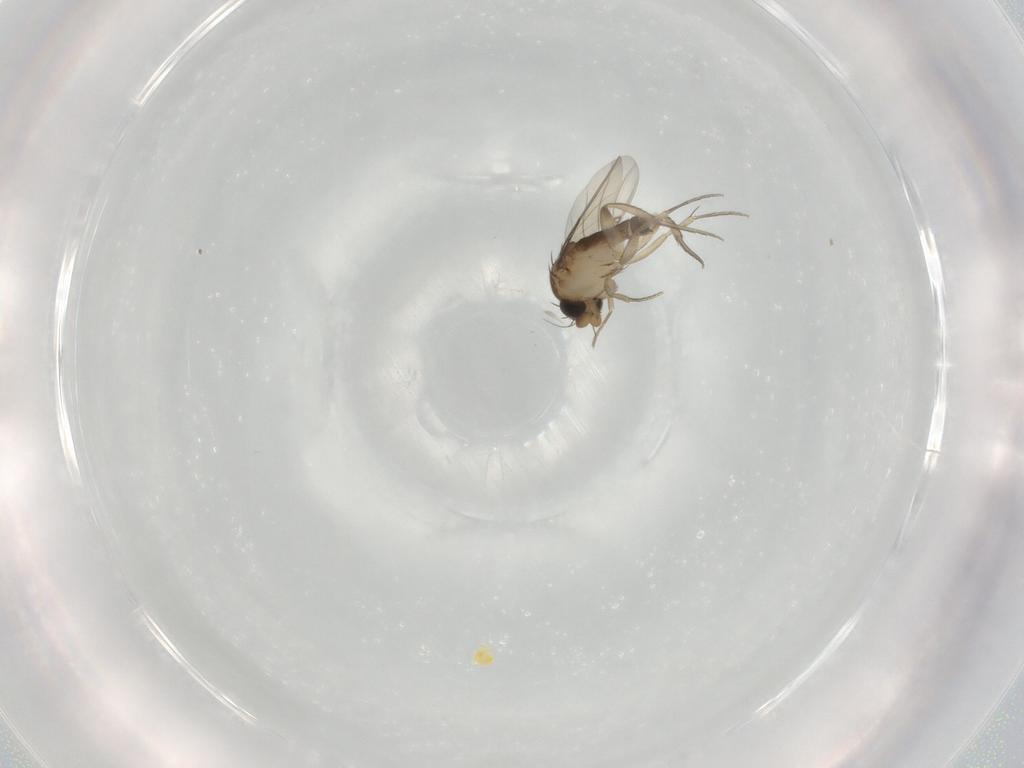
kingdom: Animalia
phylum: Arthropoda
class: Insecta
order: Diptera
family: Phoridae
